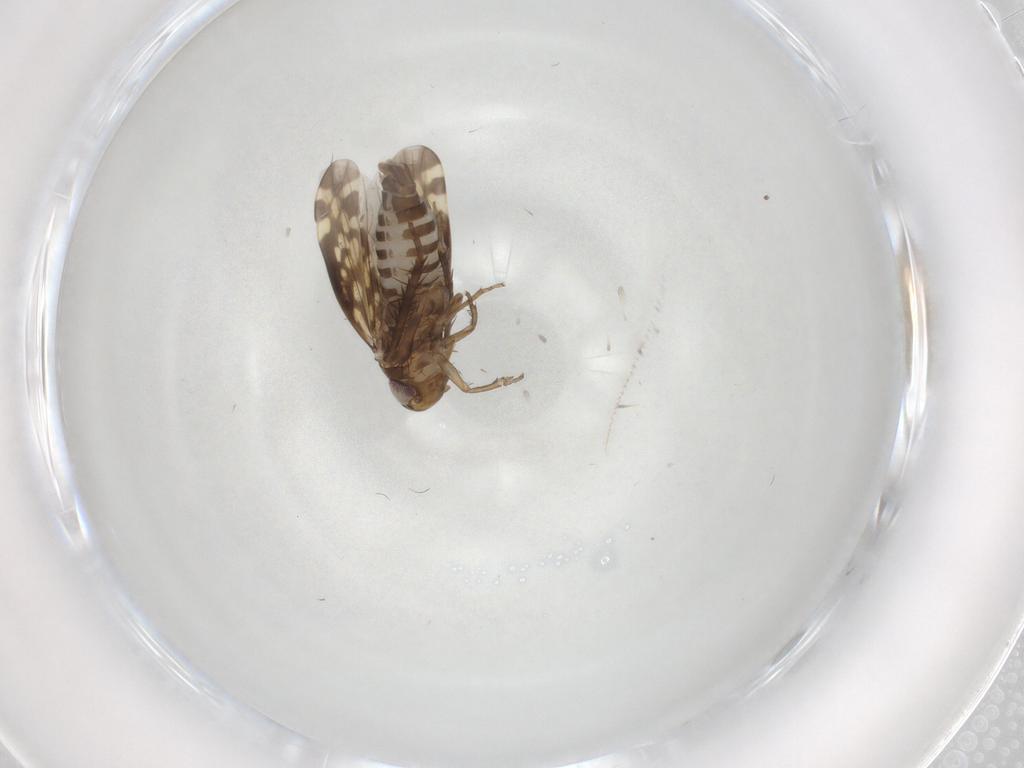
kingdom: Animalia
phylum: Arthropoda
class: Insecta
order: Hemiptera
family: Cicadellidae
